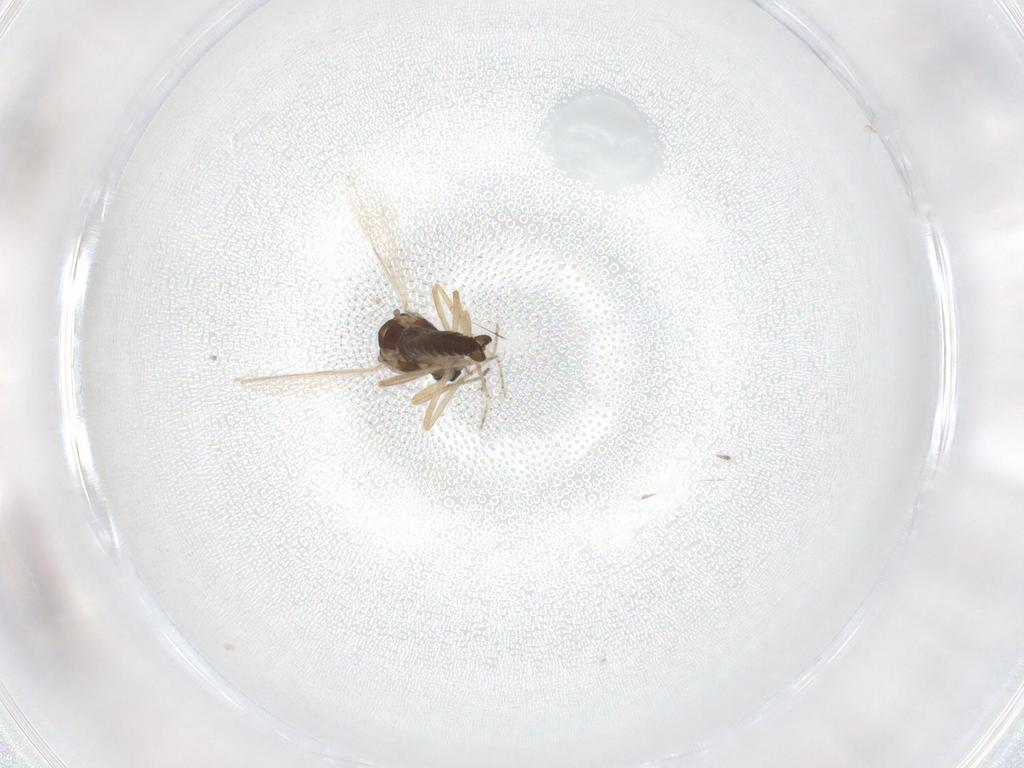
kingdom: Animalia
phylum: Arthropoda
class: Insecta
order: Diptera
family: Ceratopogonidae
